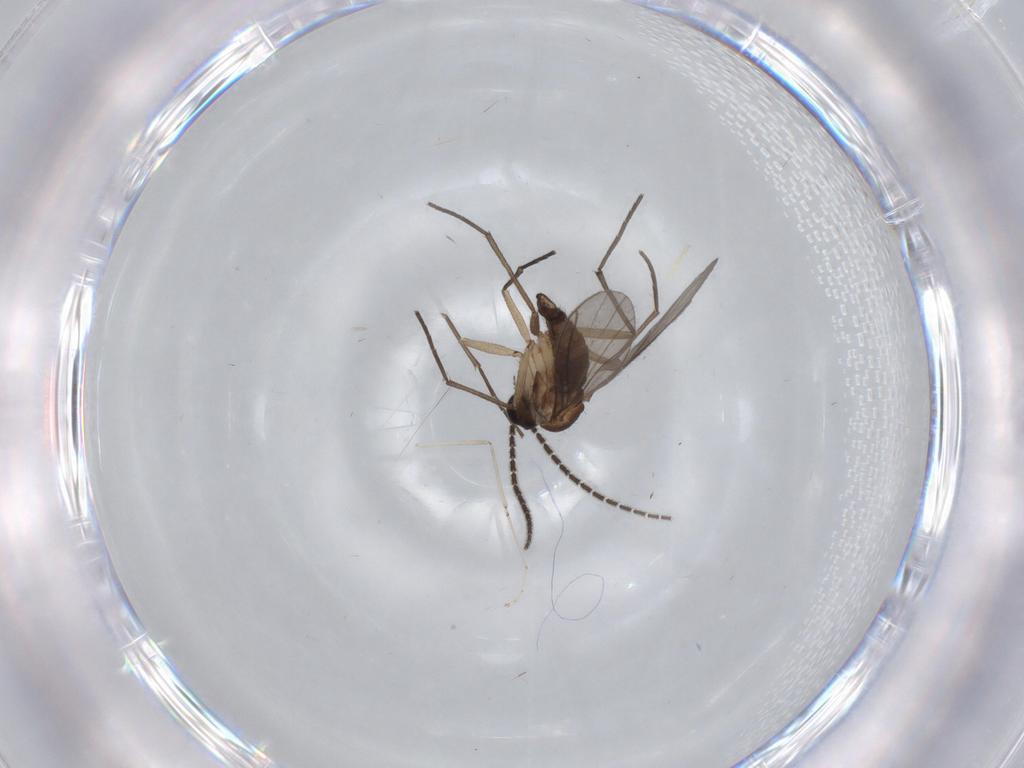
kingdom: Animalia
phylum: Arthropoda
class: Insecta
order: Diptera
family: Sciaridae
